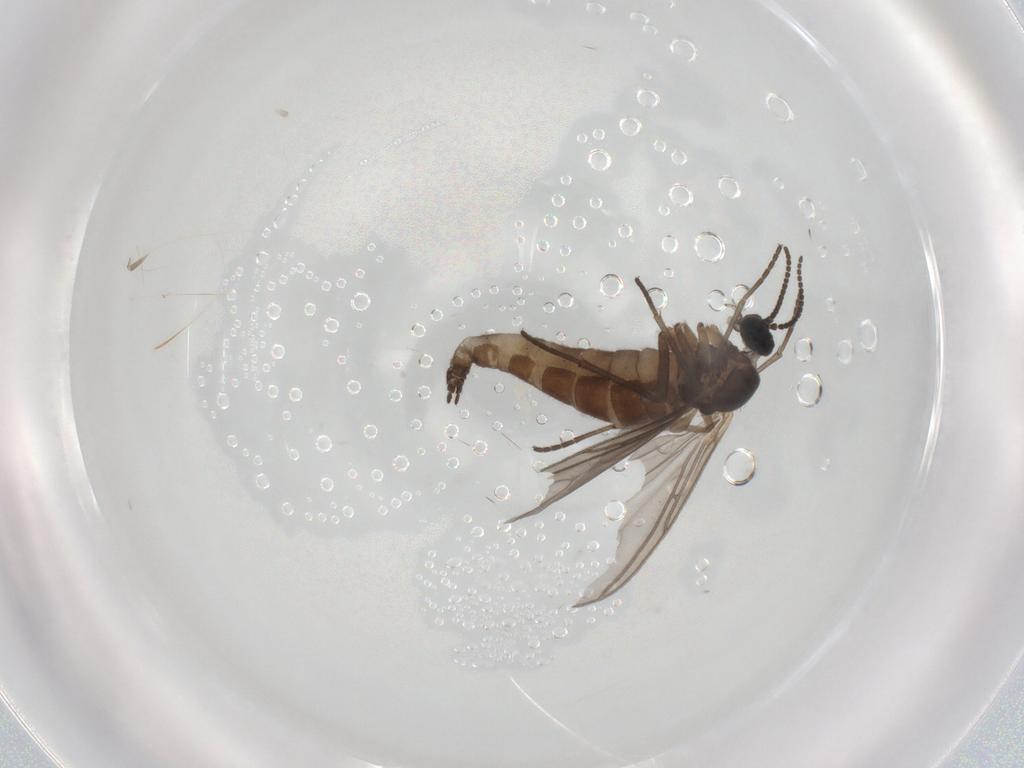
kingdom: Animalia
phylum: Arthropoda
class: Insecta
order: Diptera
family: Sciaridae
